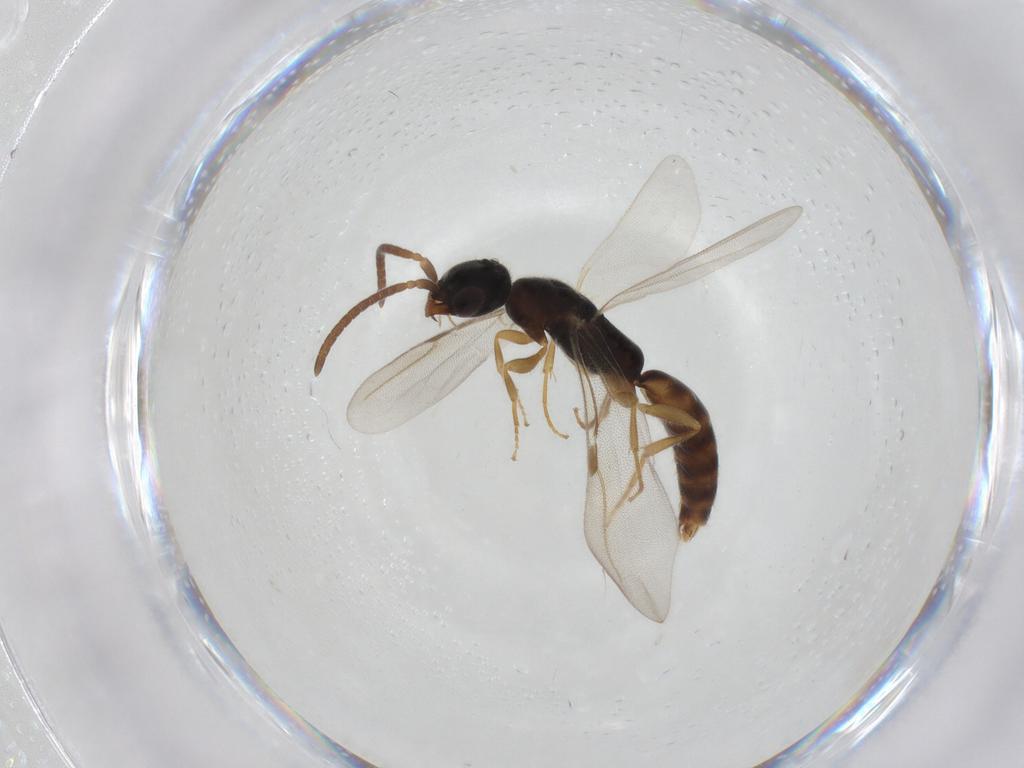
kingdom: Animalia
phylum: Arthropoda
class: Insecta
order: Hymenoptera
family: Bethylidae
